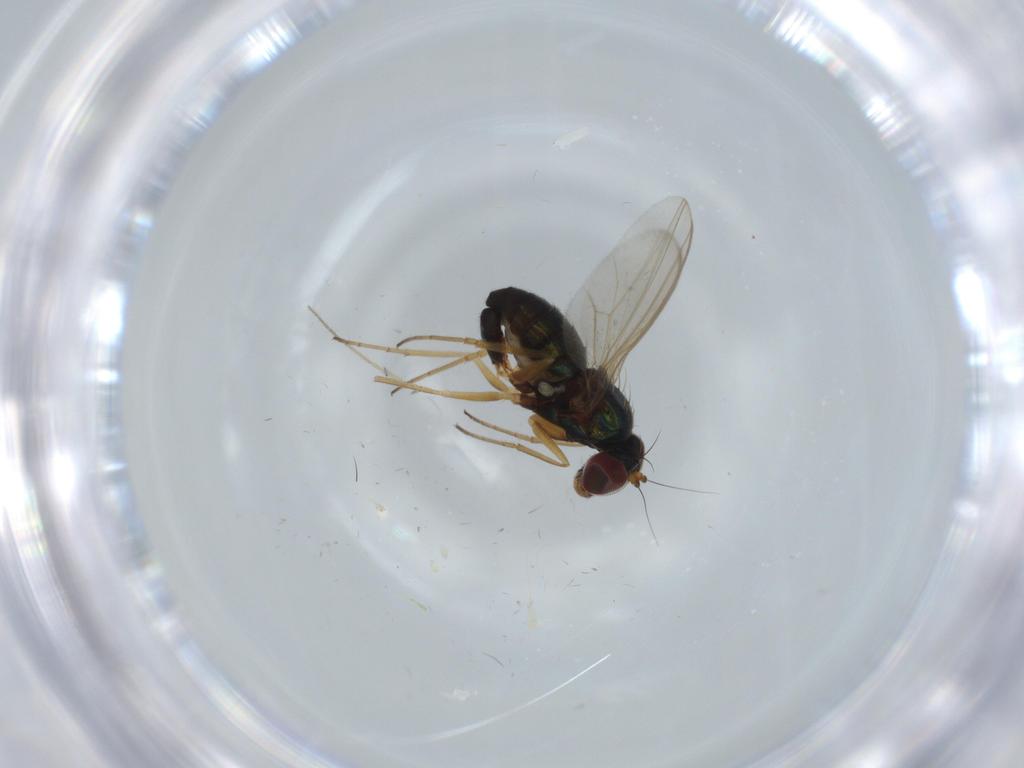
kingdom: Animalia
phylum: Arthropoda
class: Insecta
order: Diptera
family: Dolichopodidae
